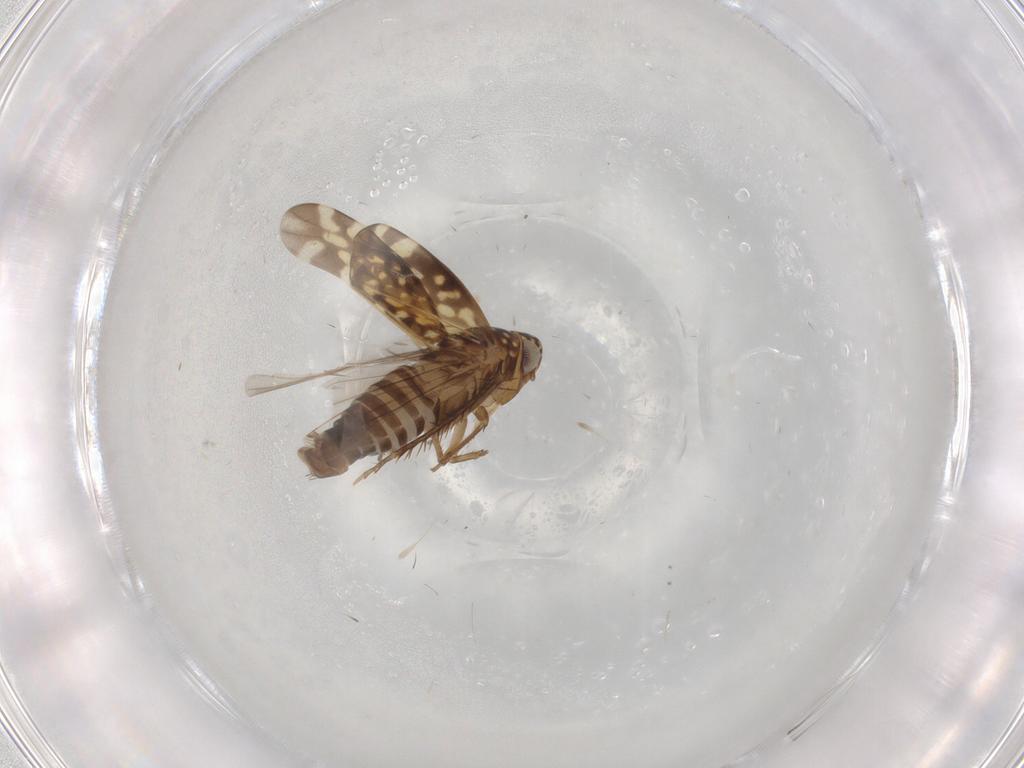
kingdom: Animalia
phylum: Arthropoda
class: Insecta
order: Hemiptera
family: Cicadellidae
